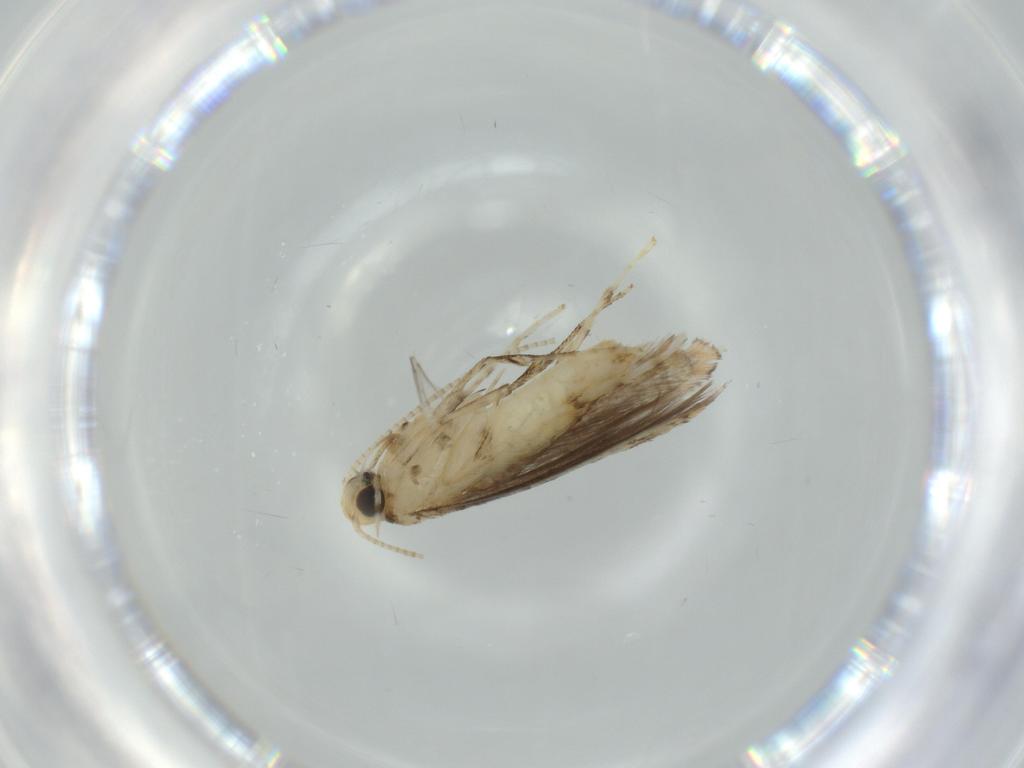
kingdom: Animalia
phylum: Arthropoda
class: Insecta
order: Lepidoptera
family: Gracillariidae
